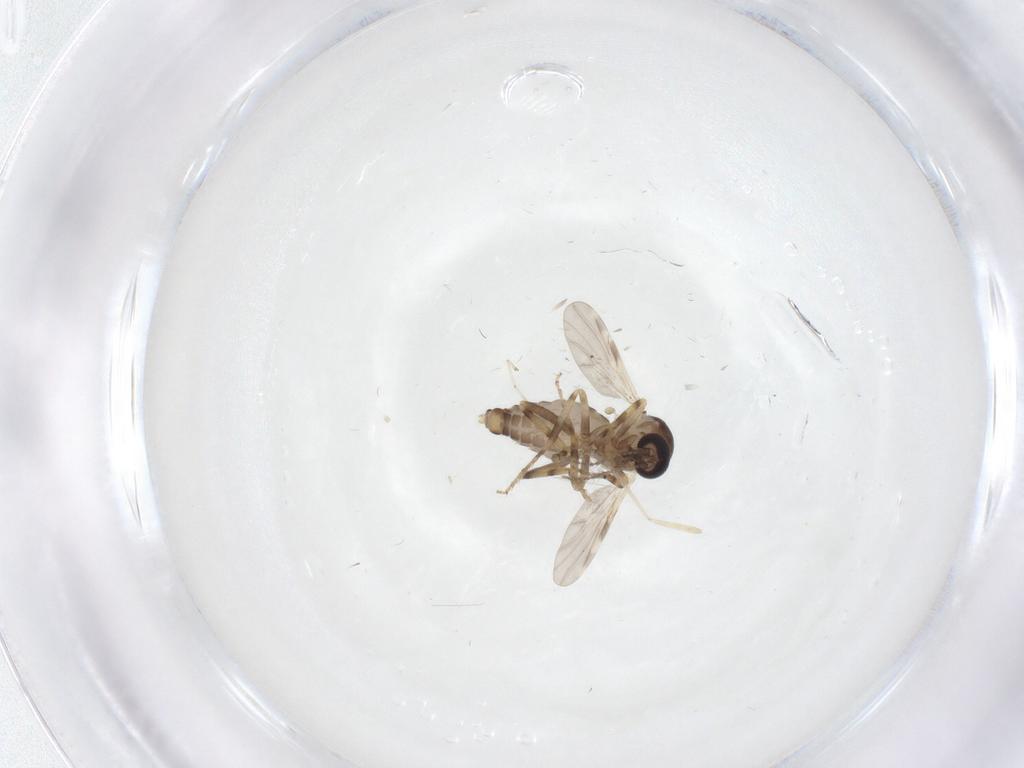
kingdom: Animalia
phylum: Arthropoda
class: Insecta
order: Diptera
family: Ceratopogonidae
